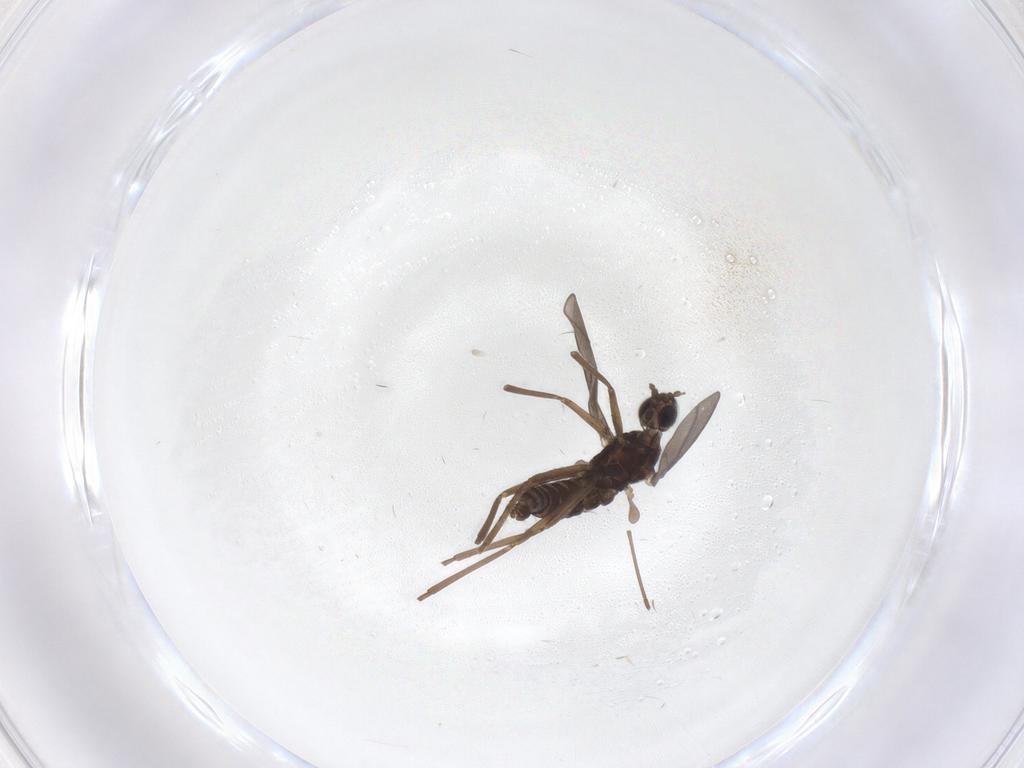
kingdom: Animalia
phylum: Arthropoda
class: Insecta
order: Diptera
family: Cecidomyiidae
